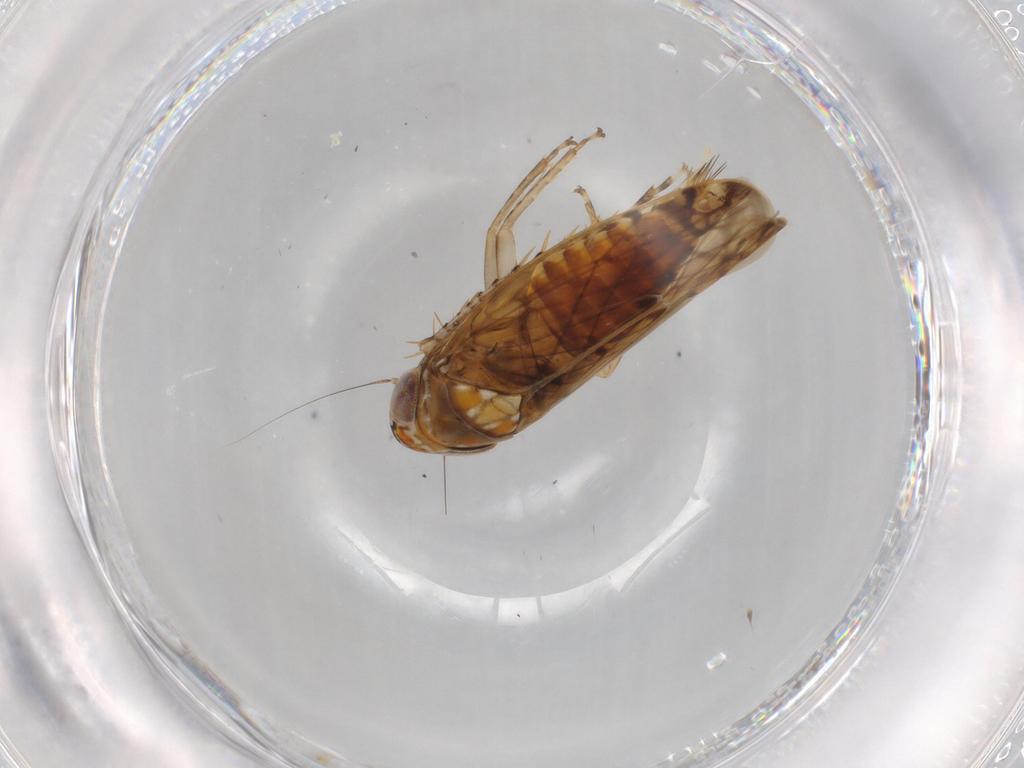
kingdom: Animalia
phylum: Arthropoda
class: Insecta
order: Hemiptera
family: Cicadellidae
